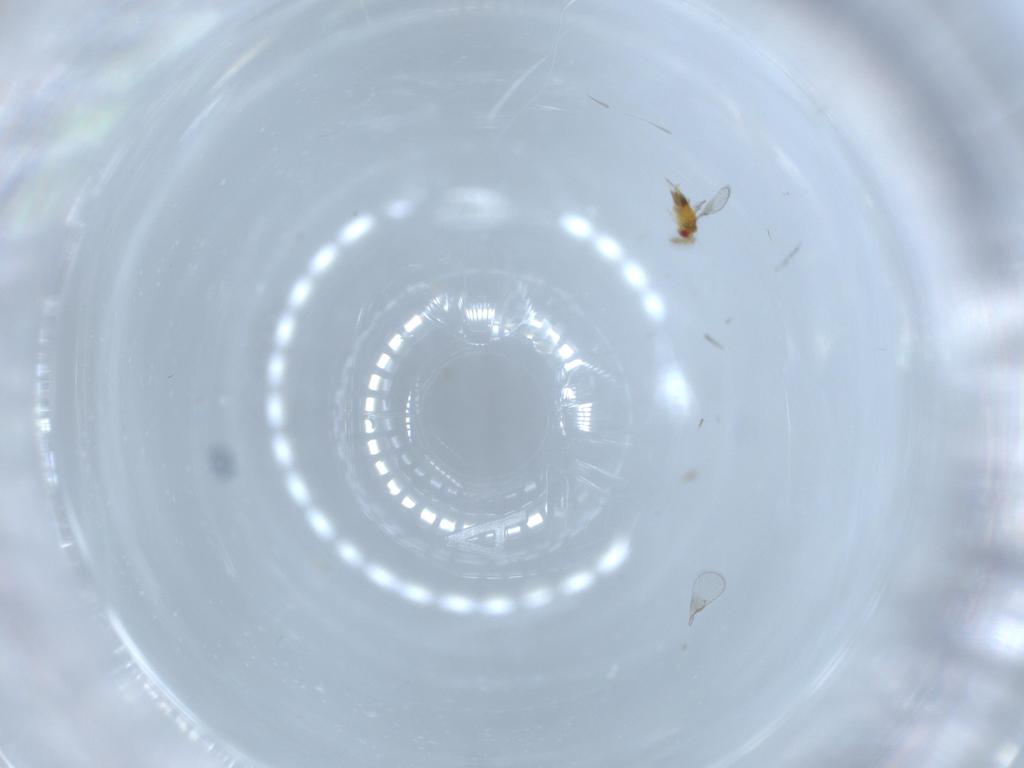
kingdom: Animalia
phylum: Arthropoda
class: Insecta
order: Hymenoptera
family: Trichogrammatidae
